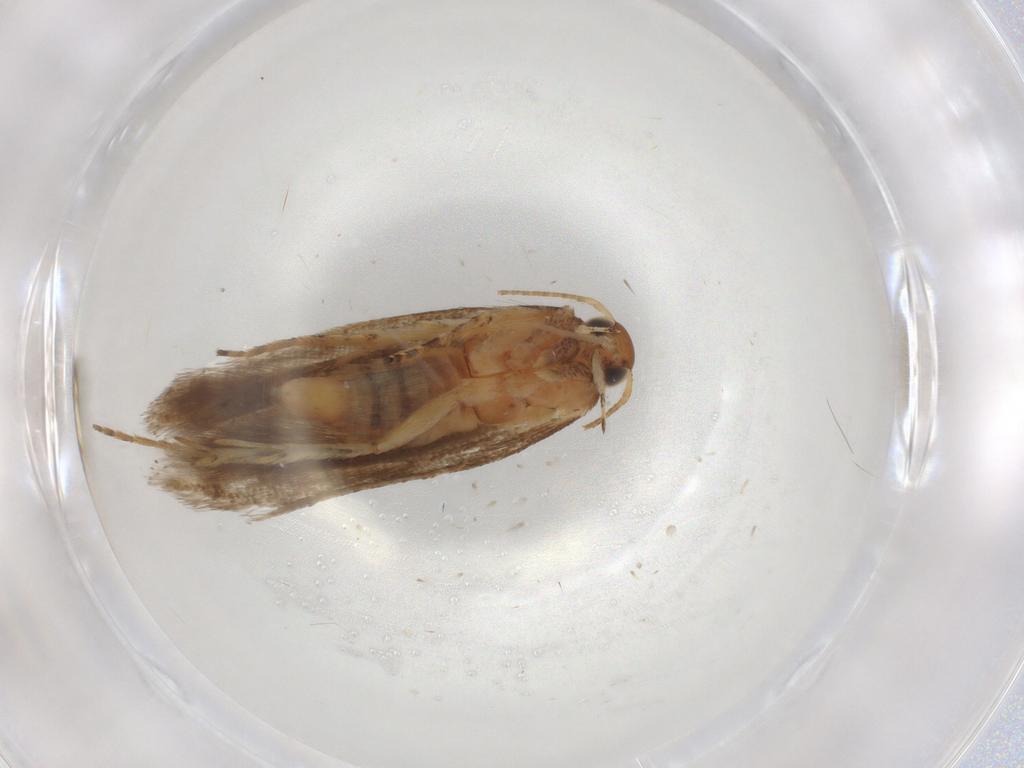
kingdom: Animalia
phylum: Arthropoda
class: Insecta
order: Lepidoptera
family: Gelechiidae
